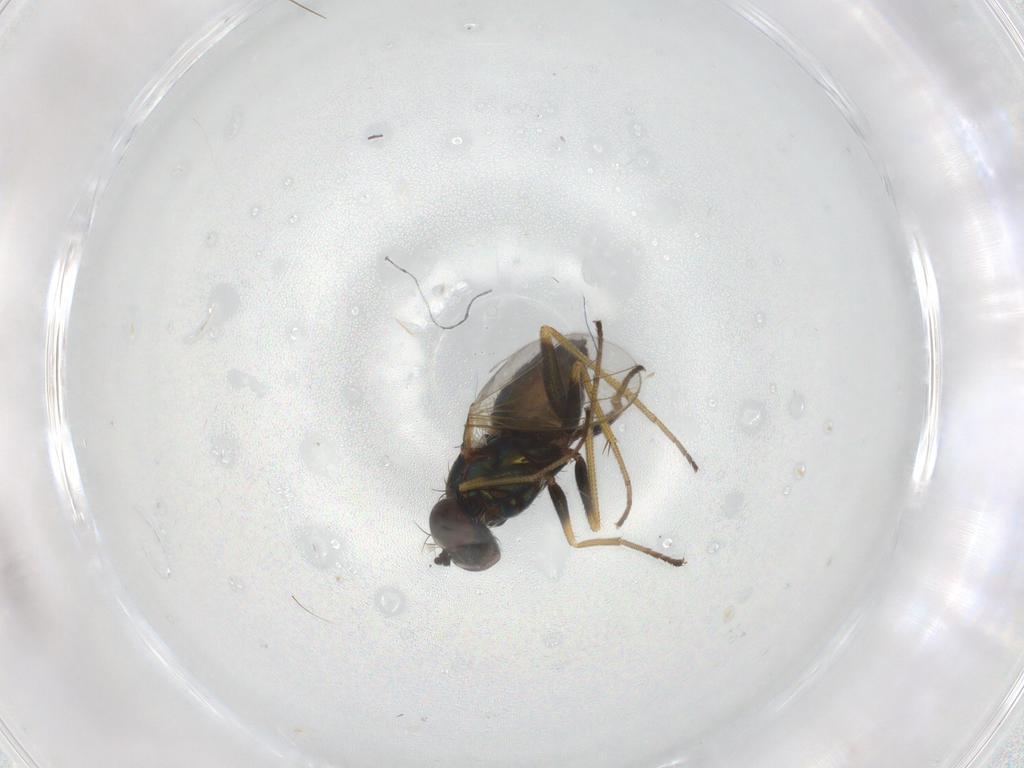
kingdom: Animalia
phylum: Arthropoda
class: Insecta
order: Diptera
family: Dolichopodidae
